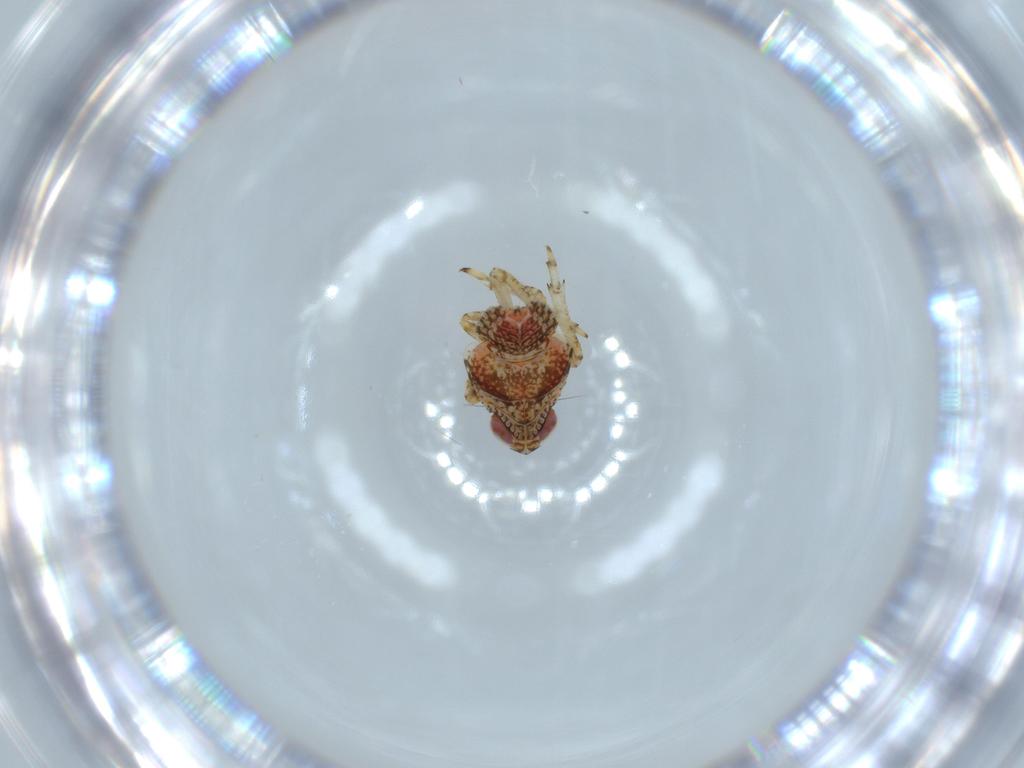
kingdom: Animalia
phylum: Arthropoda
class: Insecta
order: Hemiptera
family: Issidae
